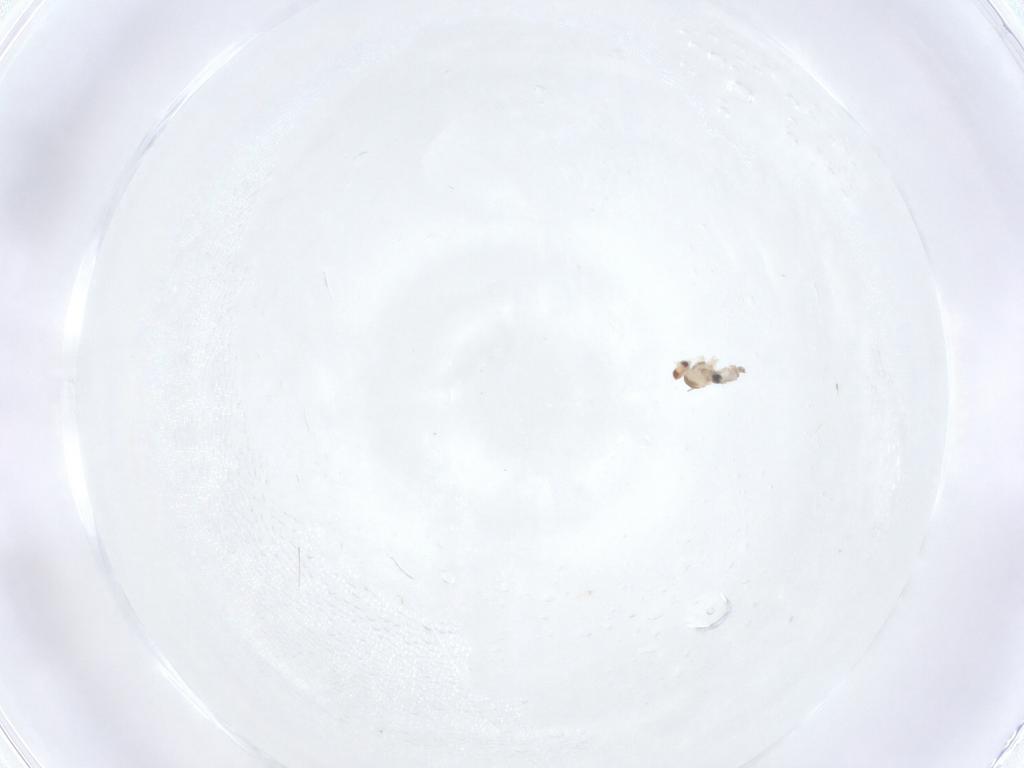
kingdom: Animalia
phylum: Arthropoda
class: Insecta
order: Diptera
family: Cecidomyiidae
